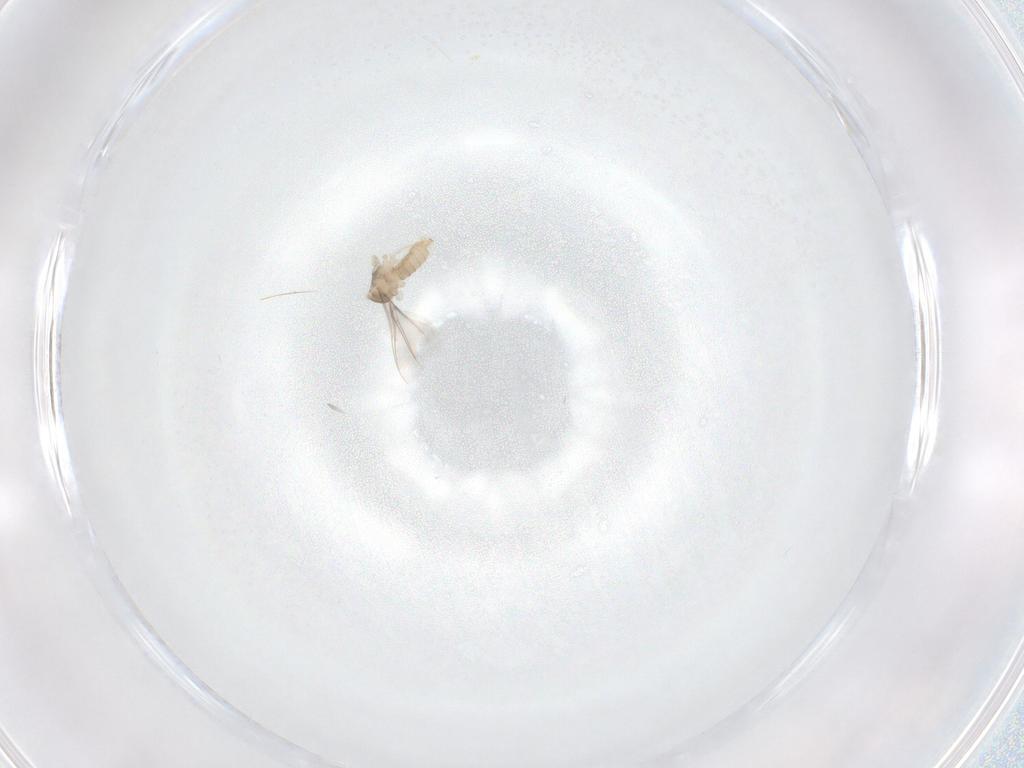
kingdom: Animalia
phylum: Arthropoda
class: Insecta
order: Diptera
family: Cecidomyiidae
